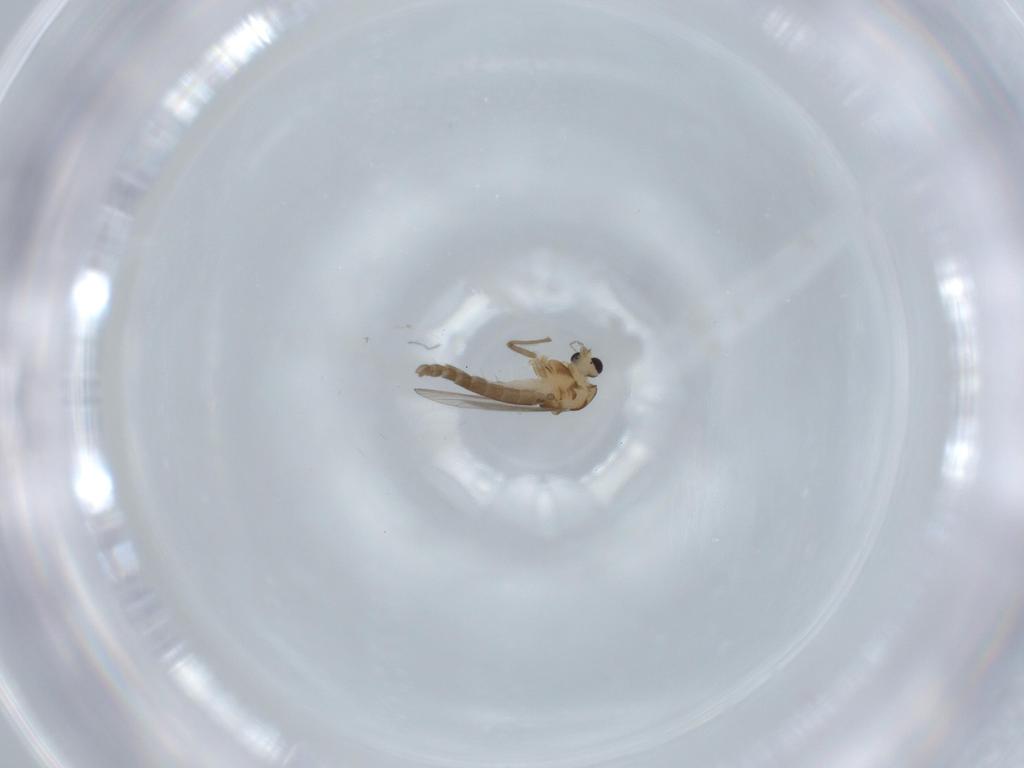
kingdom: Animalia
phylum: Arthropoda
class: Insecta
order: Diptera
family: Chironomidae
